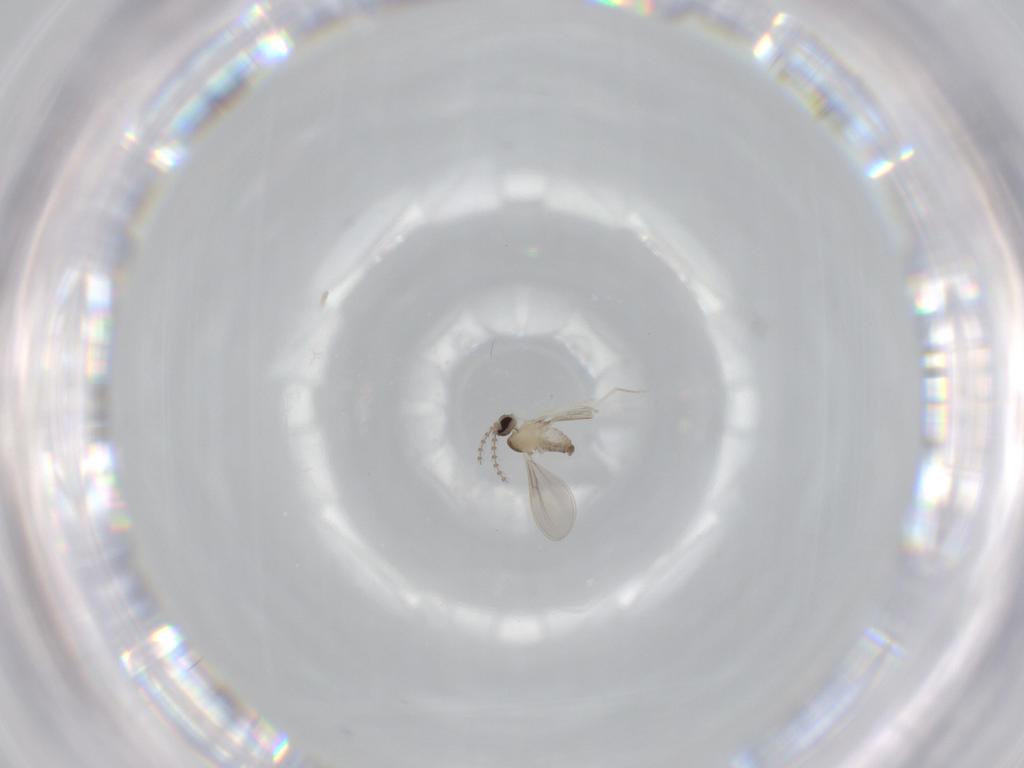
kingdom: Animalia
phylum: Arthropoda
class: Insecta
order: Diptera
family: Cecidomyiidae
